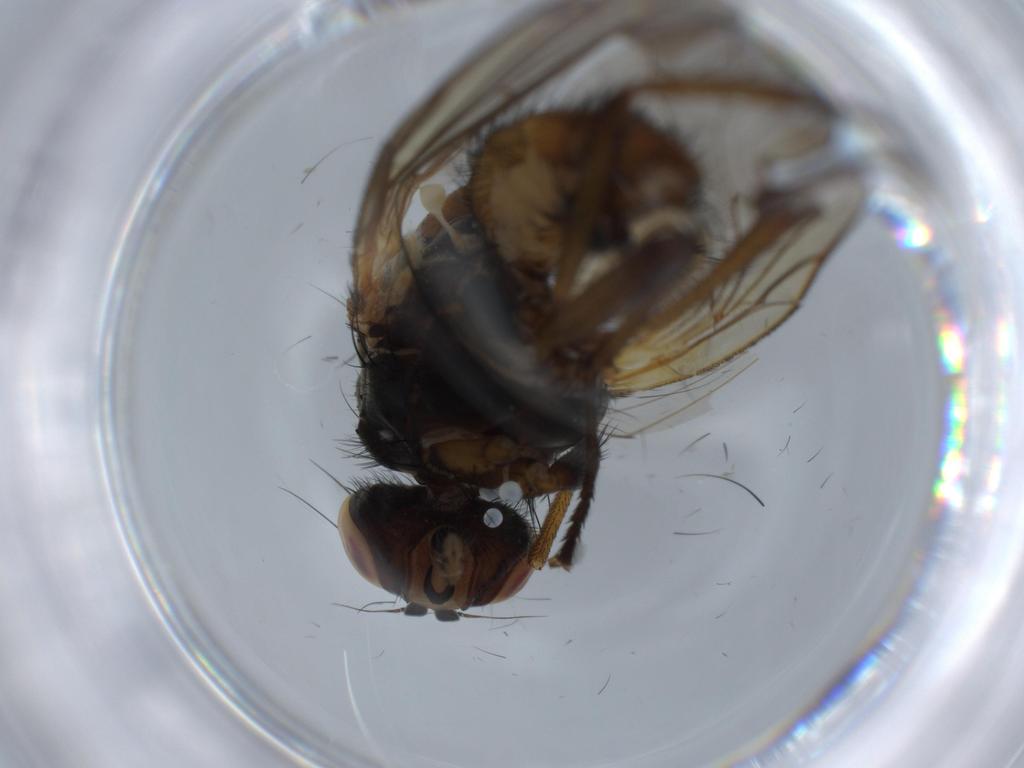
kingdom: Animalia
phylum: Arthropoda
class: Insecta
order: Diptera
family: Anthomyiidae
